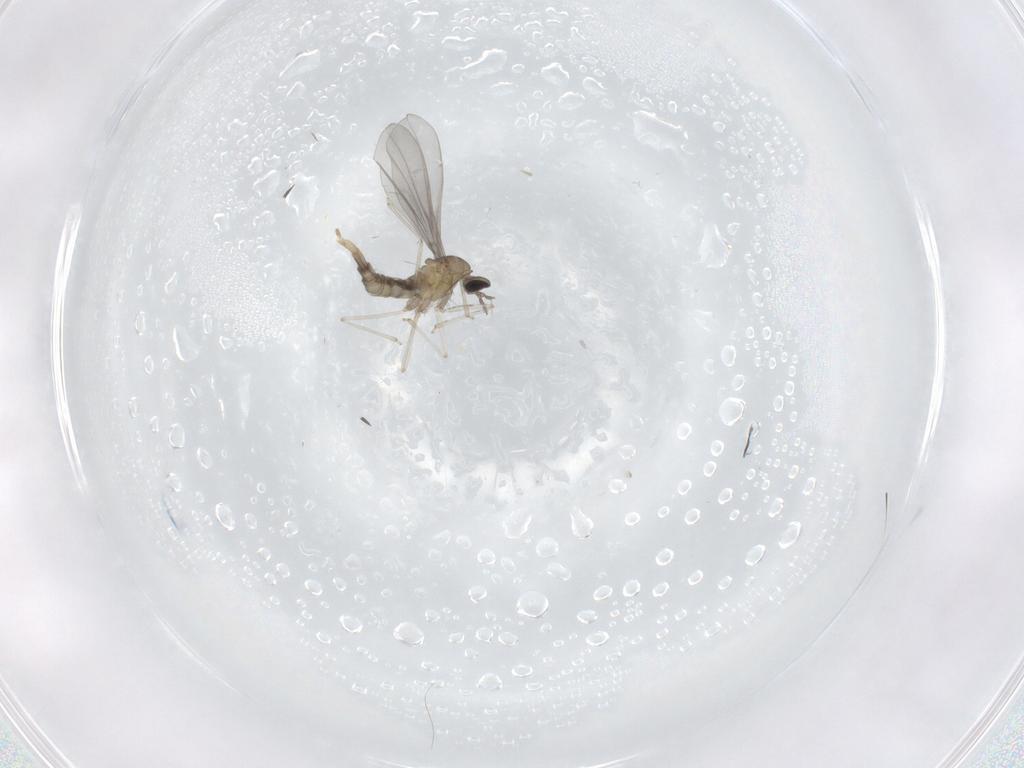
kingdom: Animalia
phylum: Arthropoda
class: Insecta
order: Diptera
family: Cecidomyiidae
